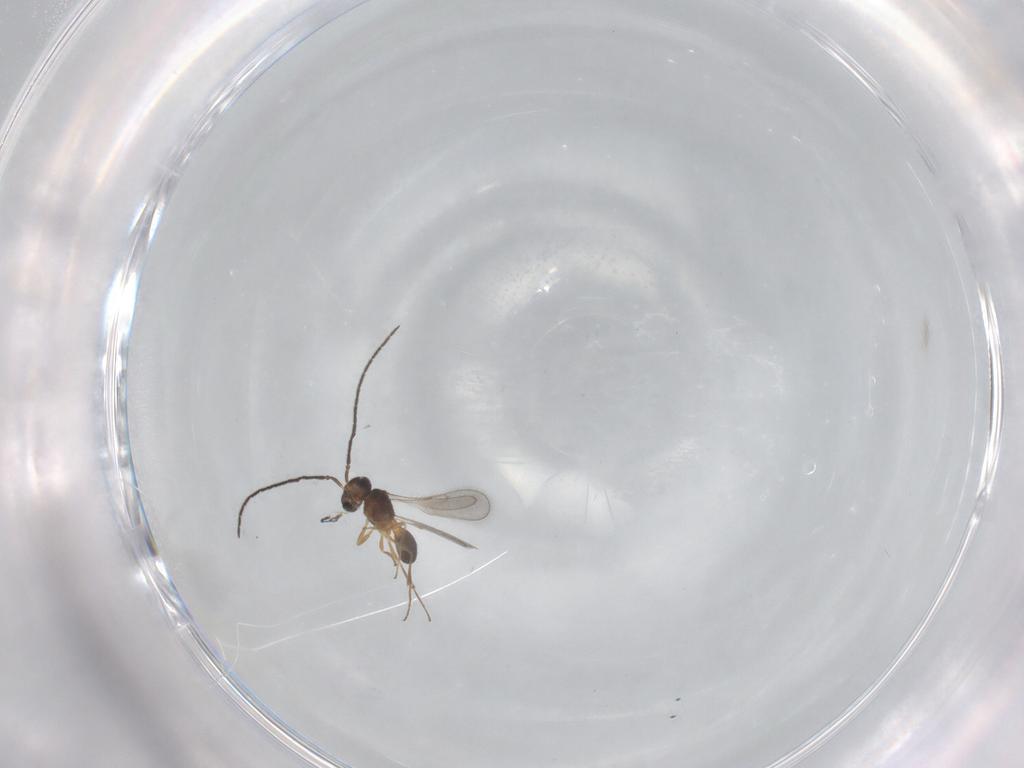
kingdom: Animalia
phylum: Arthropoda
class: Insecta
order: Hymenoptera
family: Scelionidae
